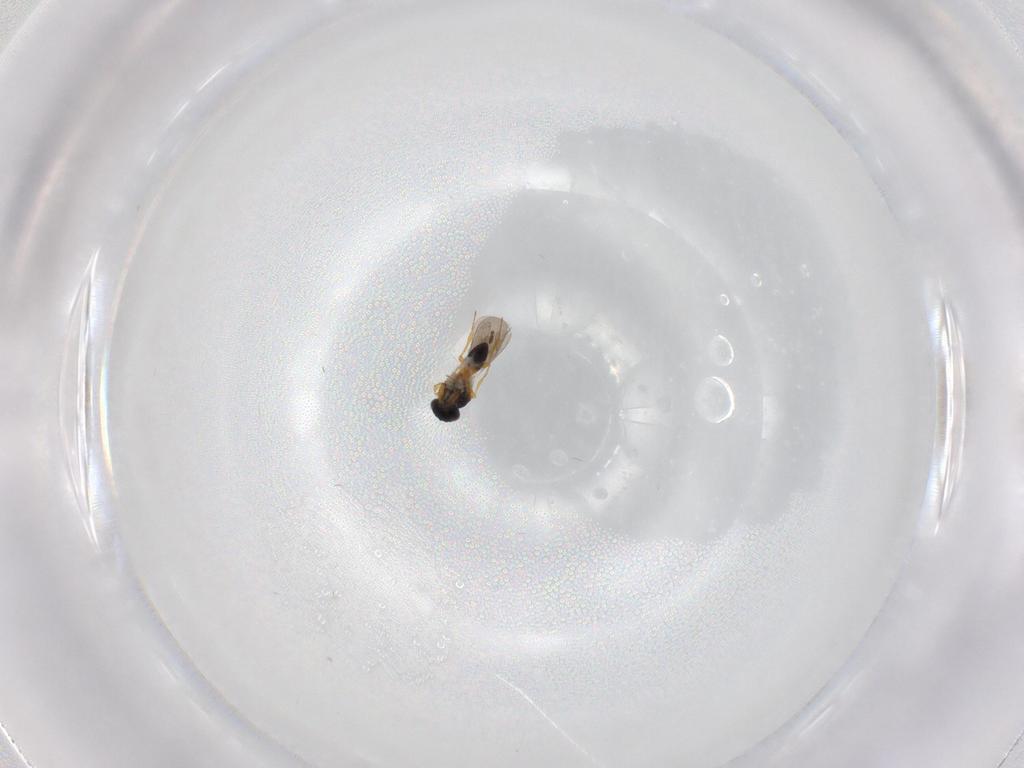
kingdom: Animalia
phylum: Arthropoda
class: Insecta
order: Hymenoptera
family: Platygastridae
